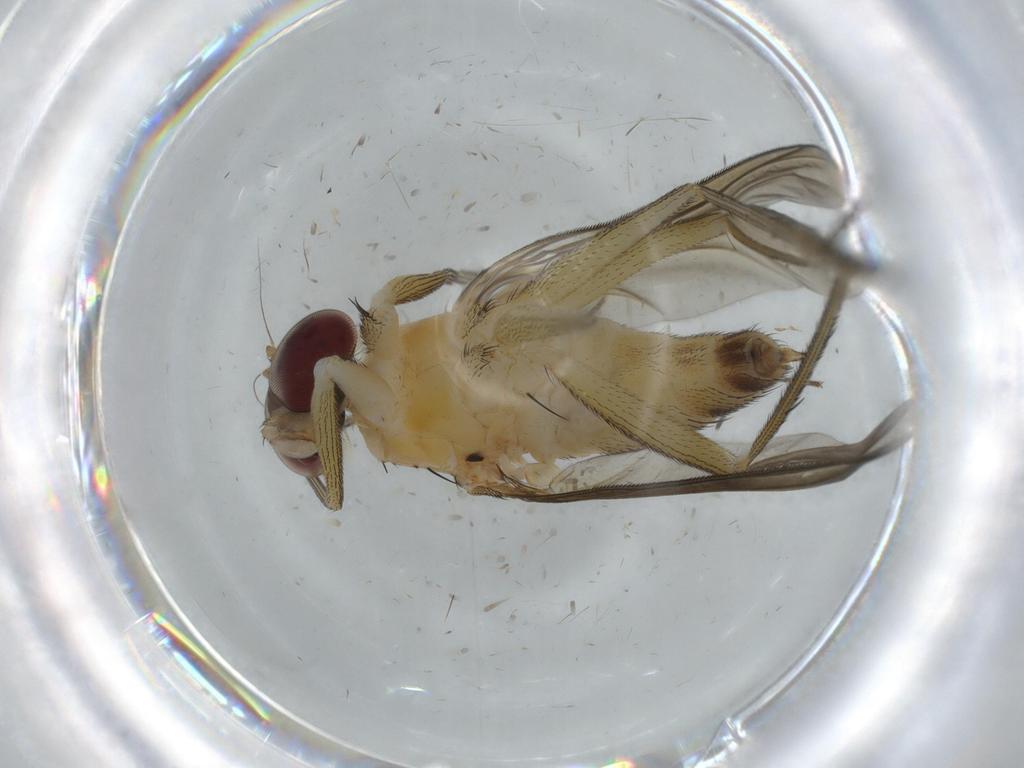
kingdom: Animalia
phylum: Arthropoda
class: Insecta
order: Diptera
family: Dolichopodidae
